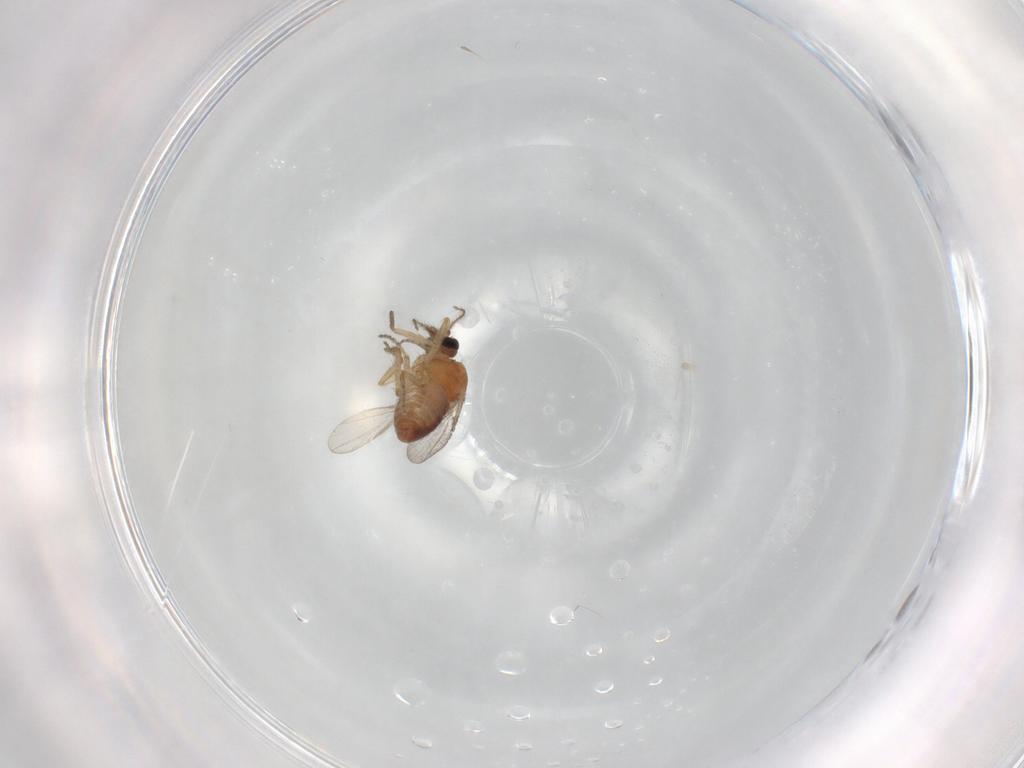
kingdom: Animalia
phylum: Arthropoda
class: Insecta
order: Diptera
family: Ceratopogonidae
